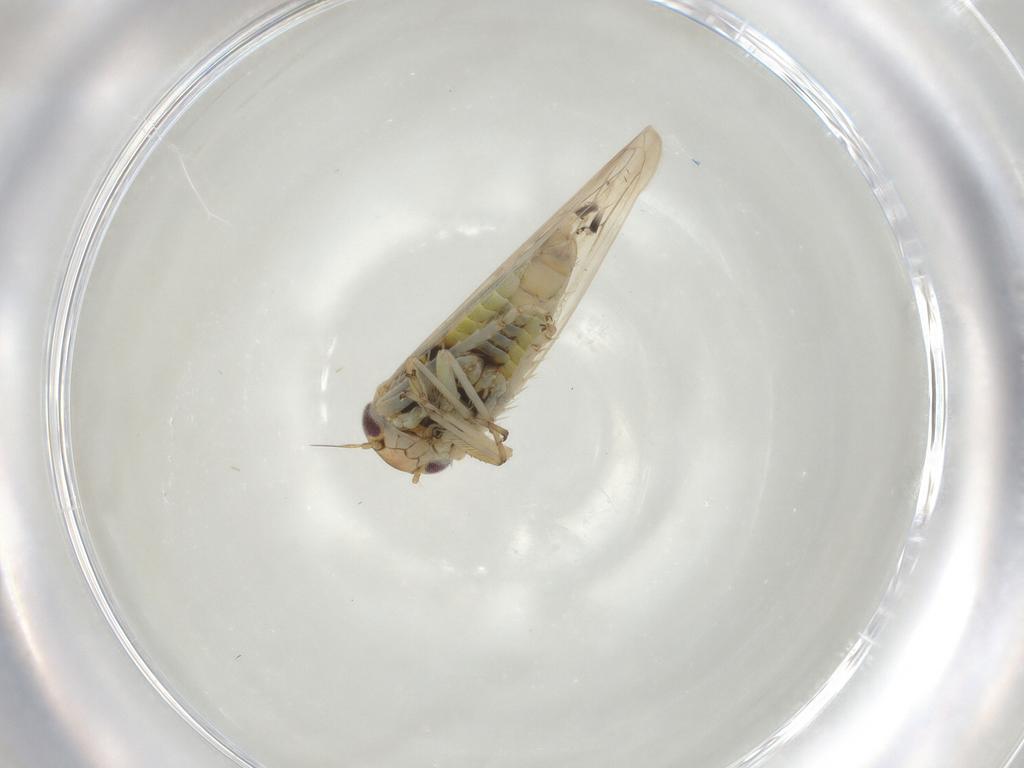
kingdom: Animalia
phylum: Arthropoda
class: Insecta
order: Hemiptera
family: Cicadellidae
